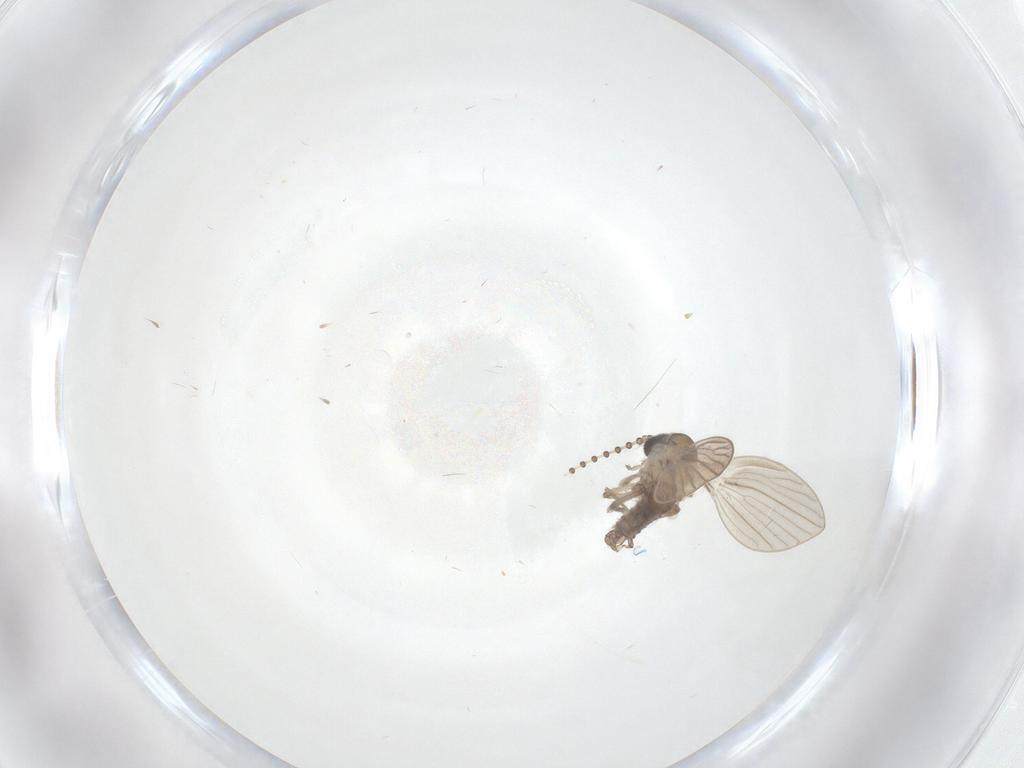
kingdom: Animalia
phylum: Arthropoda
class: Insecta
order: Diptera
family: Psychodidae
